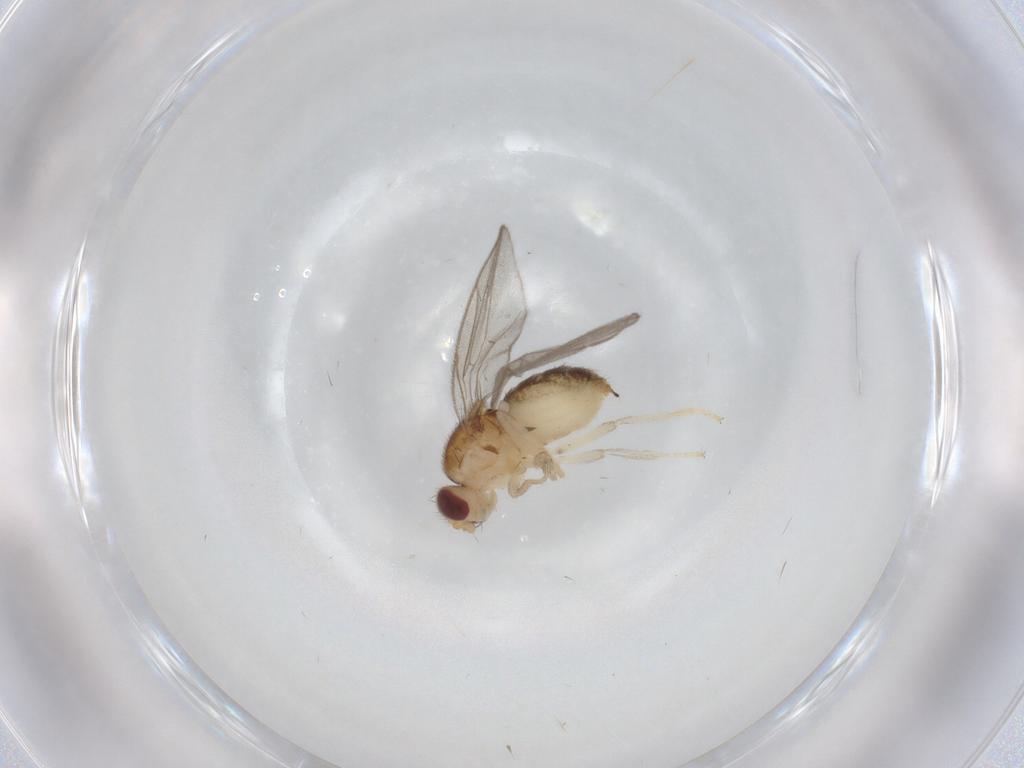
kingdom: Animalia
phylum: Arthropoda
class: Insecta
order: Diptera
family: Chloropidae
